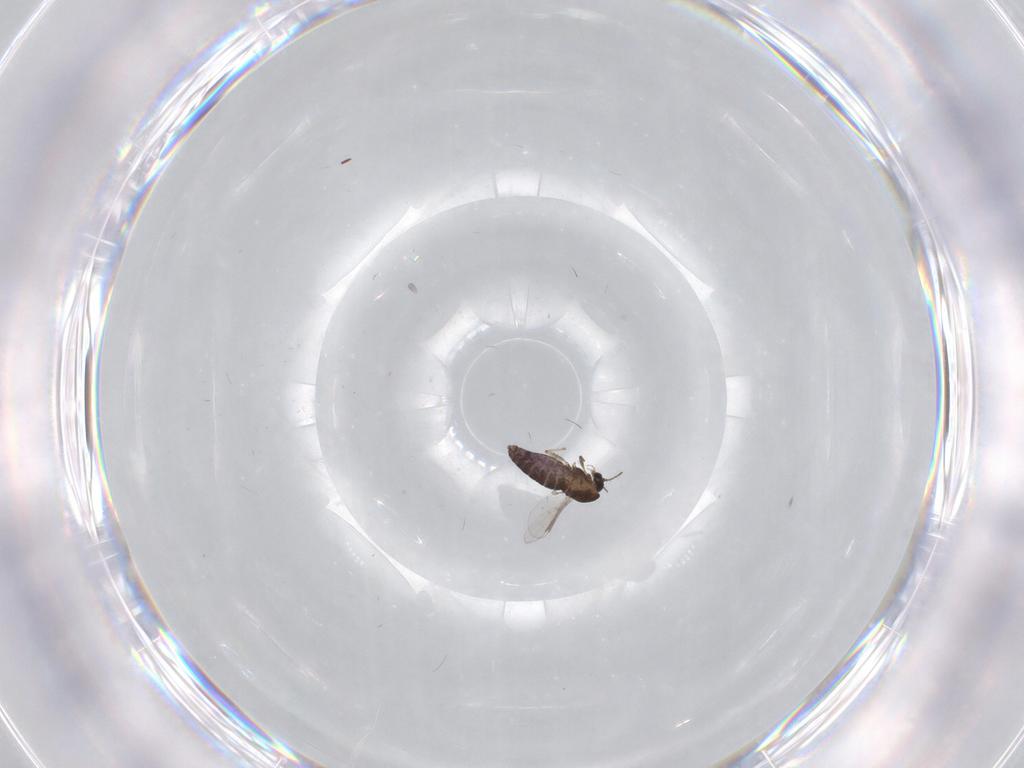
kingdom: Animalia
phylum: Arthropoda
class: Insecta
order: Diptera
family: Chironomidae
